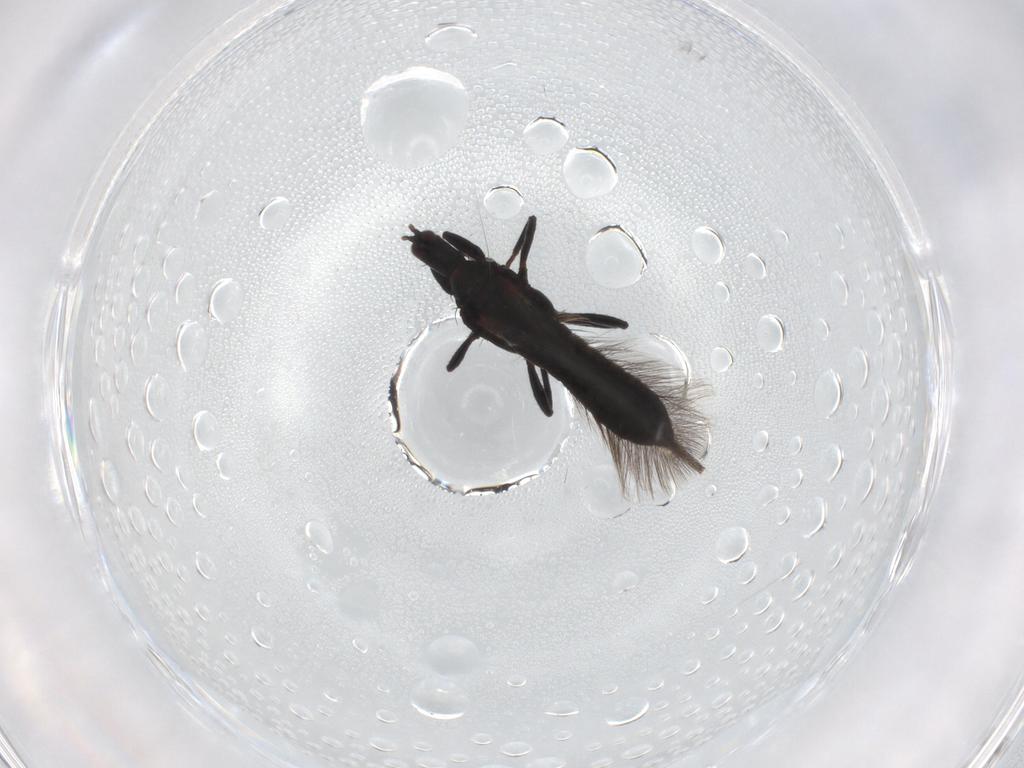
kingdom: Animalia
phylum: Arthropoda
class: Insecta
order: Thysanoptera
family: Phlaeothripidae
